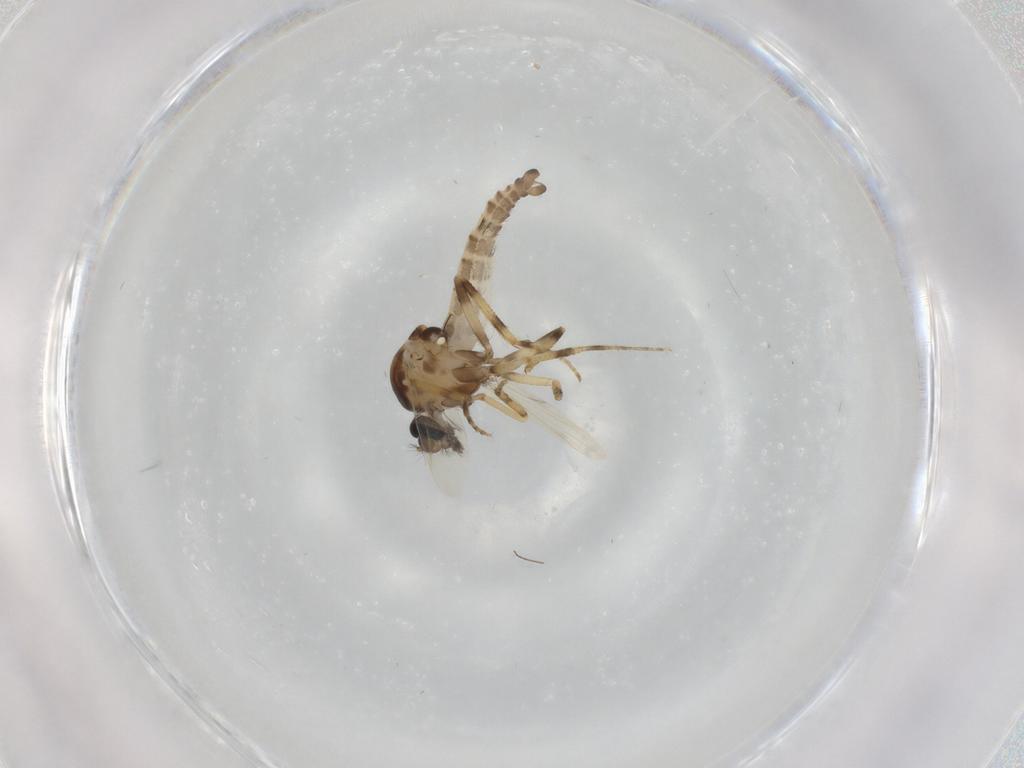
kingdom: Animalia
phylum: Arthropoda
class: Insecta
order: Diptera
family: Ceratopogonidae
